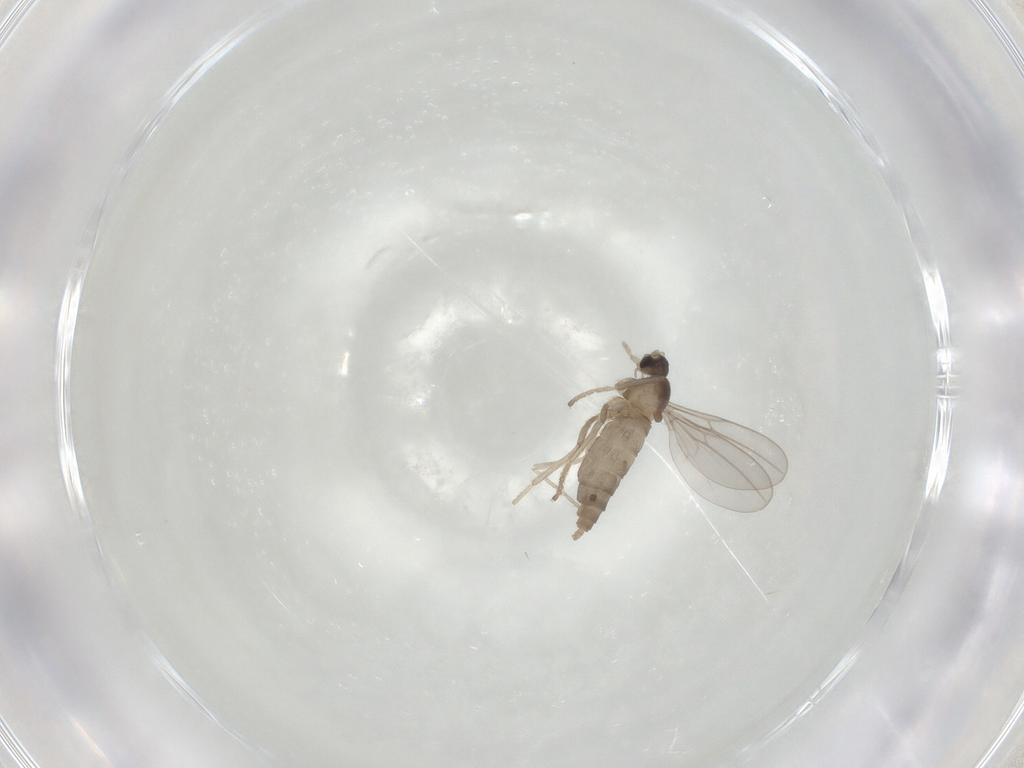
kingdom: Animalia
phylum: Arthropoda
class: Insecta
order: Diptera
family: Cecidomyiidae
